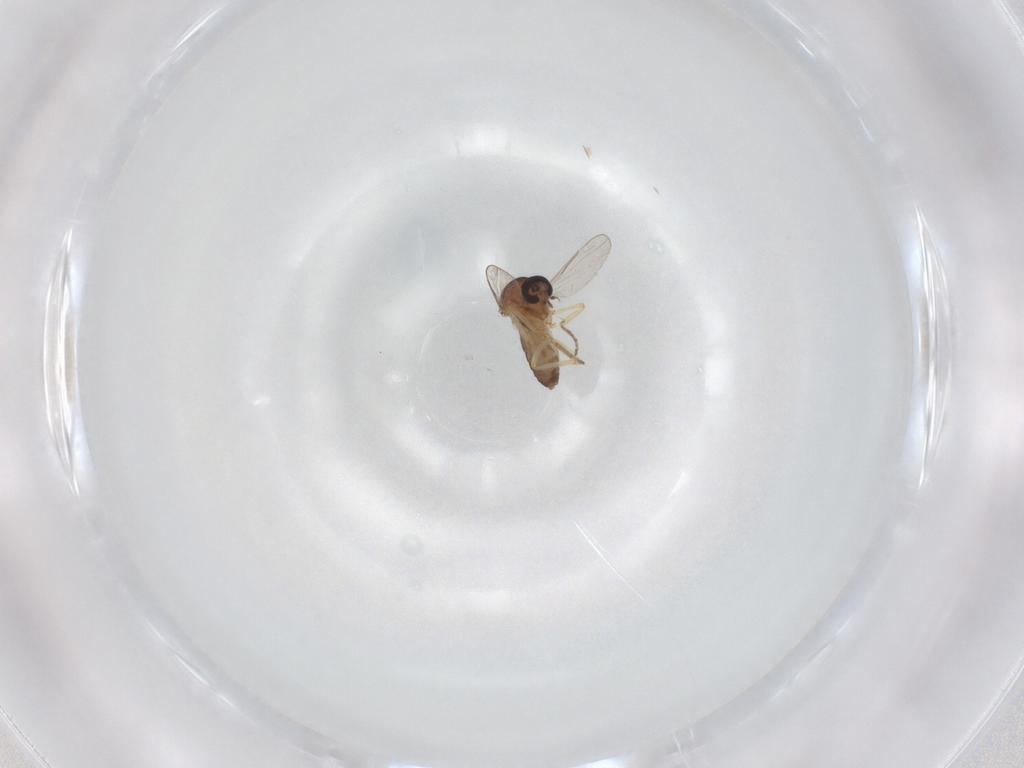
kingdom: Animalia
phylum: Arthropoda
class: Insecta
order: Diptera
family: Ceratopogonidae
